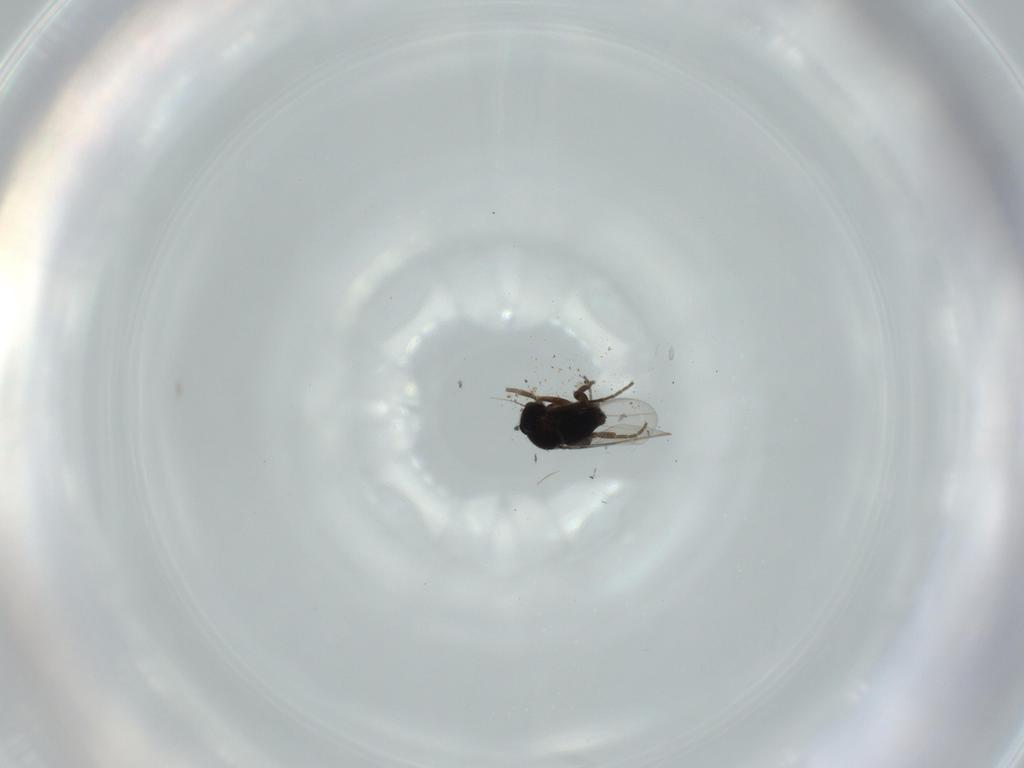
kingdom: Animalia
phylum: Arthropoda
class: Insecta
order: Diptera
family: Phoridae
